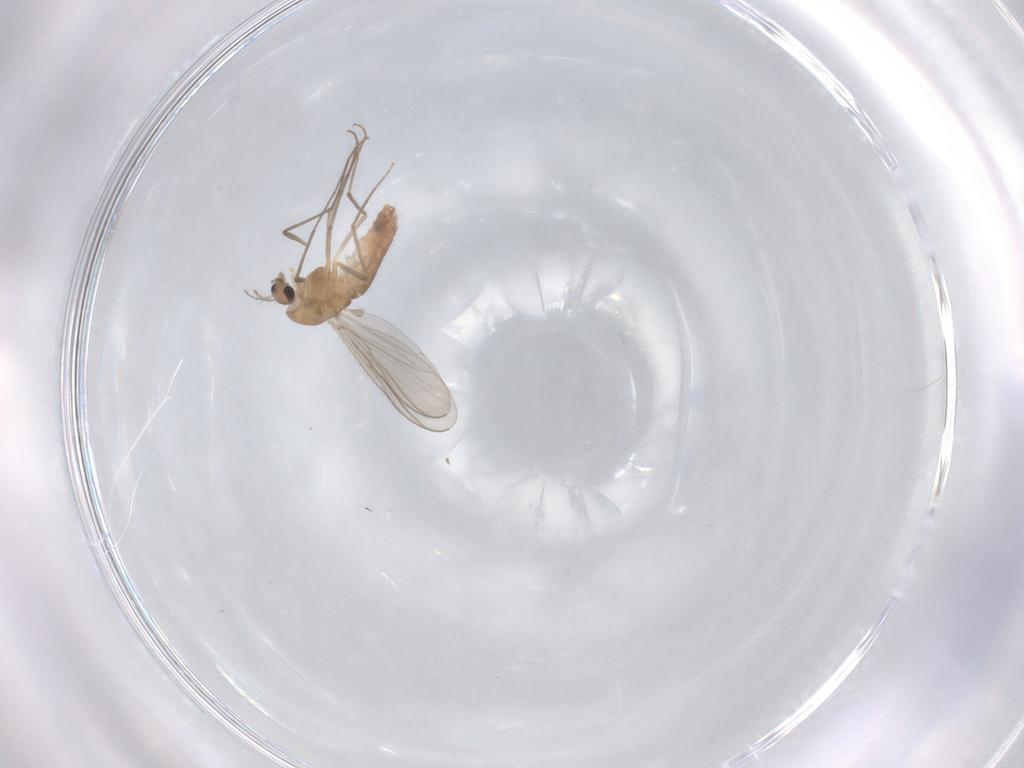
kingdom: Animalia
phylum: Arthropoda
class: Insecta
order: Diptera
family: Chironomidae
